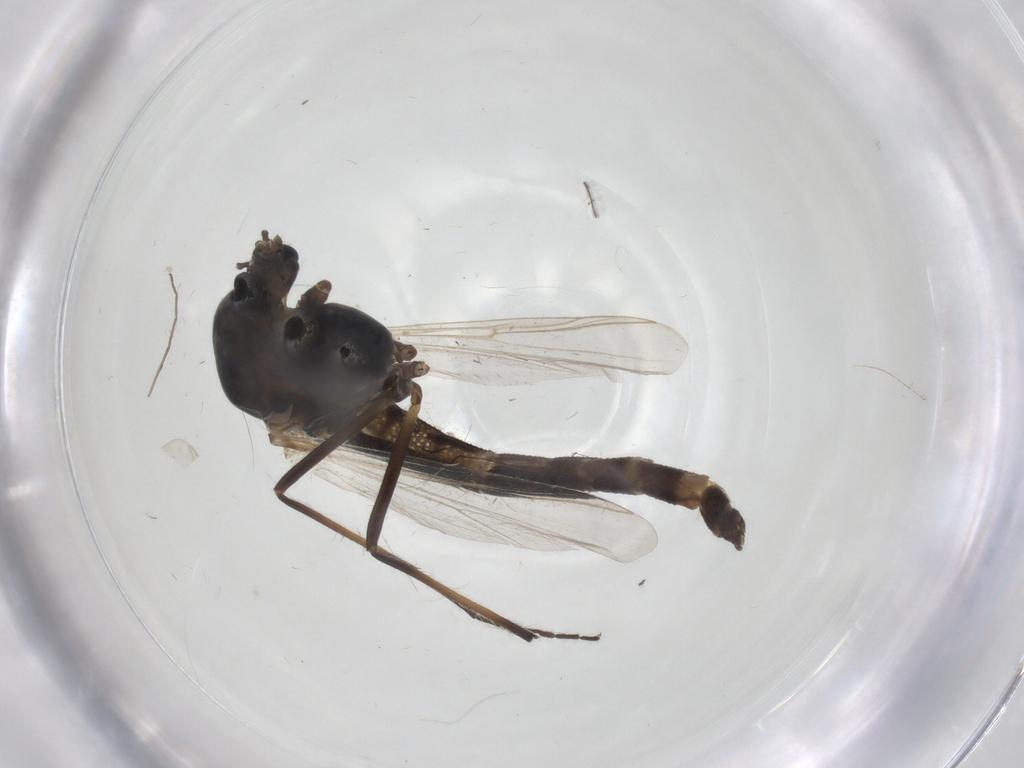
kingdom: Animalia
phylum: Arthropoda
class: Insecta
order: Diptera
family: Chironomidae
